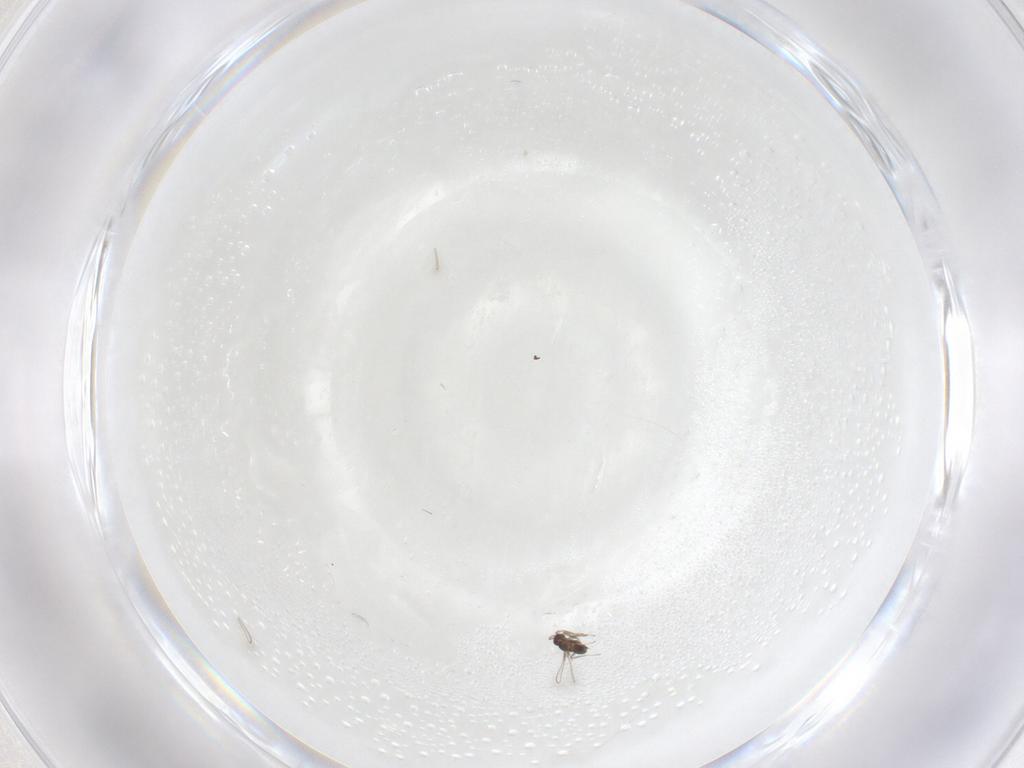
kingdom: Animalia
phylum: Arthropoda
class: Insecta
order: Hymenoptera
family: Mymaridae
